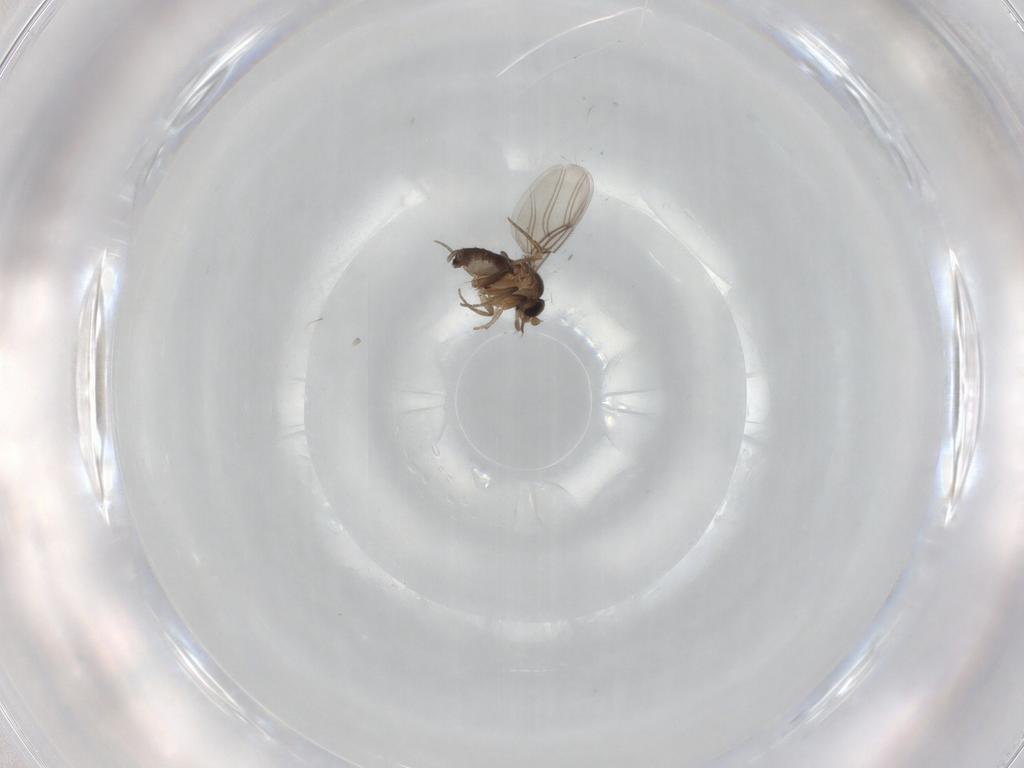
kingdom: Animalia
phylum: Arthropoda
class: Insecta
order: Diptera
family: Phoridae
